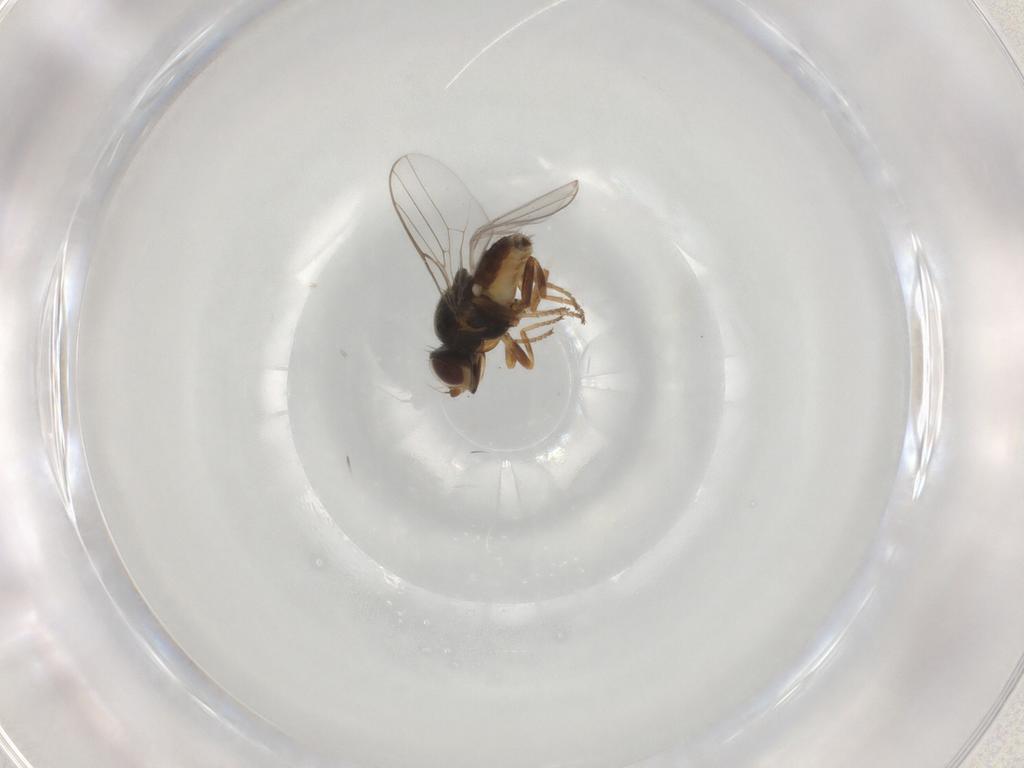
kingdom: Animalia
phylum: Arthropoda
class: Insecta
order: Diptera
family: Chloropidae
